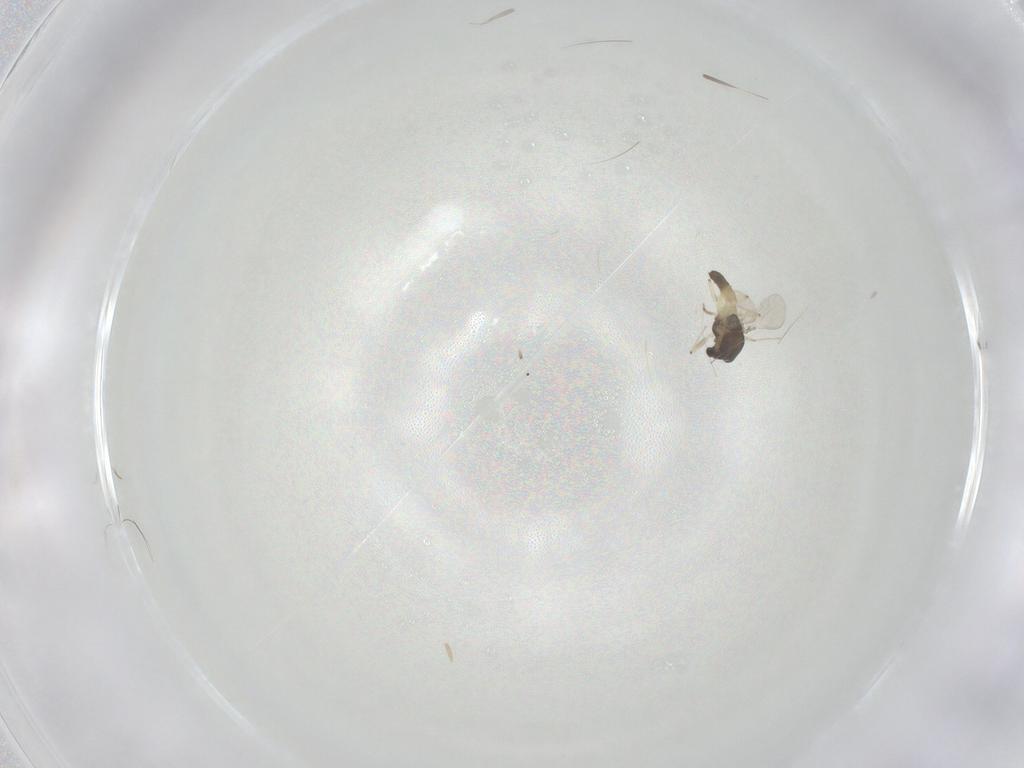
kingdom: Animalia
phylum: Arthropoda
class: Insecta
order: Diptera
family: Chironomidae
